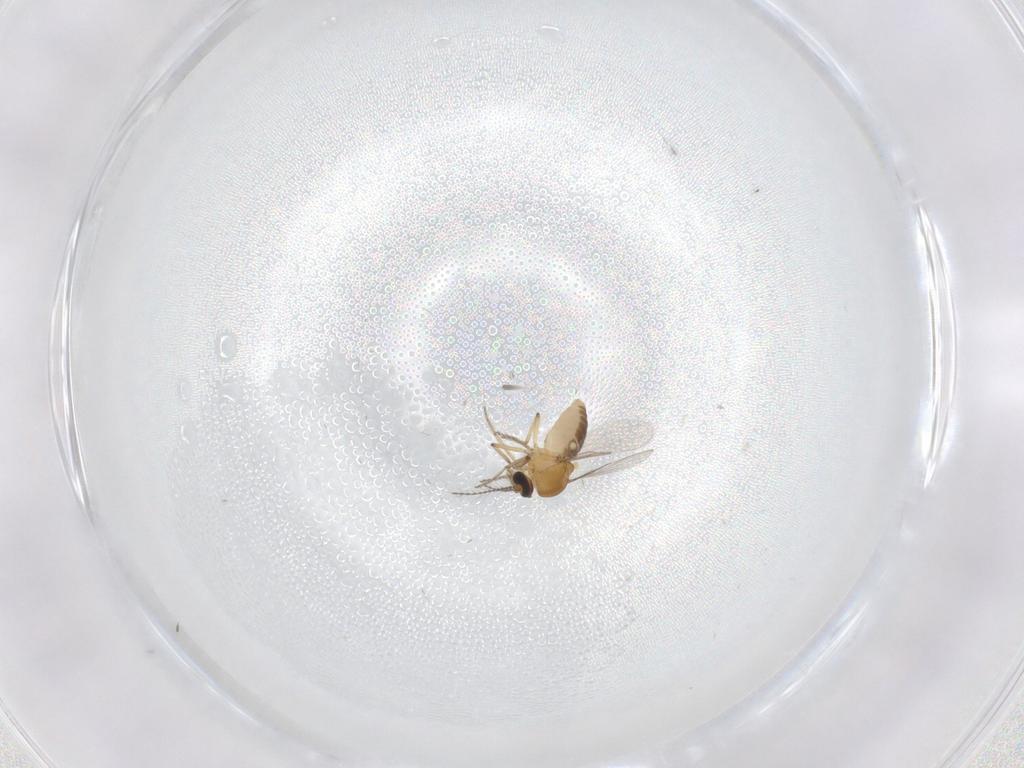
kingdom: Animalia
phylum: Arthropoda
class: Insecta
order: Diptera
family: Ceratopogonidae
